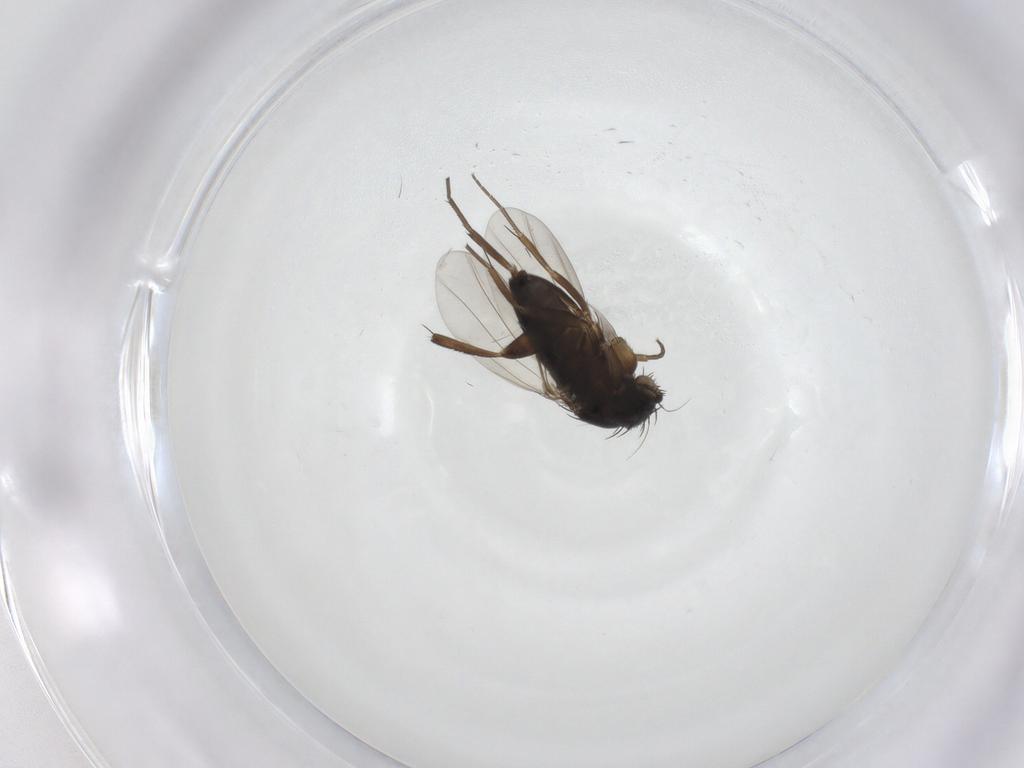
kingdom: Animalia
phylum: Arthropoda
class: Insecta
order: Diptera
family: Phoridae
